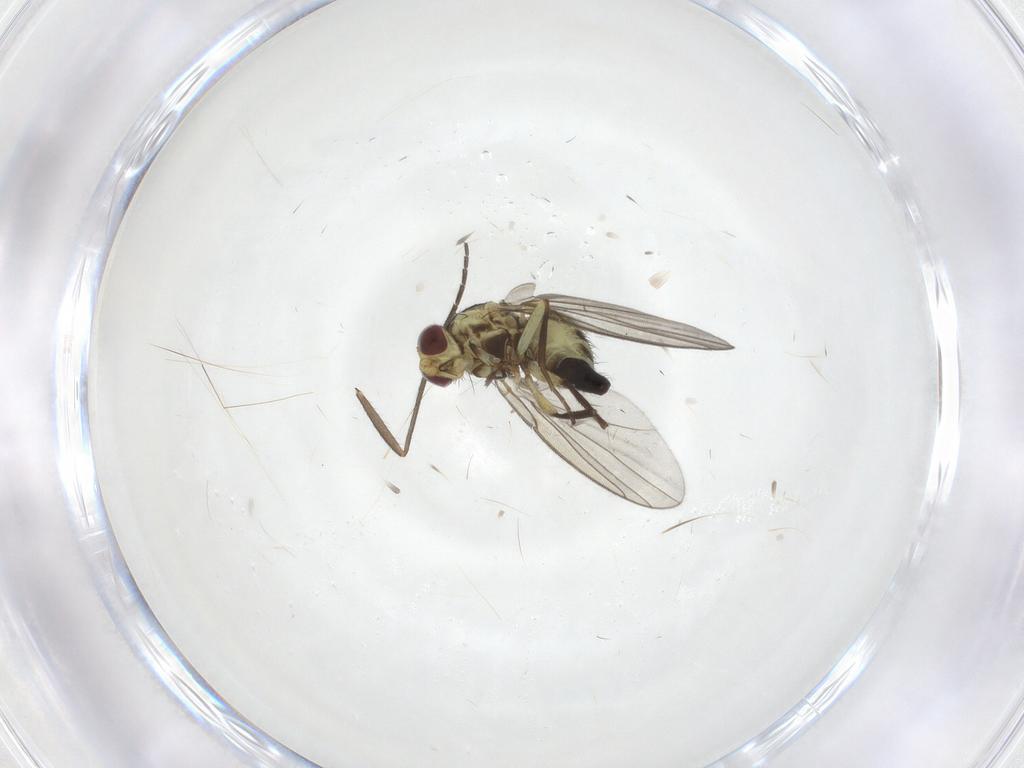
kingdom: Animalia
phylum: Arthropoda
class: Insecta
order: Diptera
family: Agromyzidae
